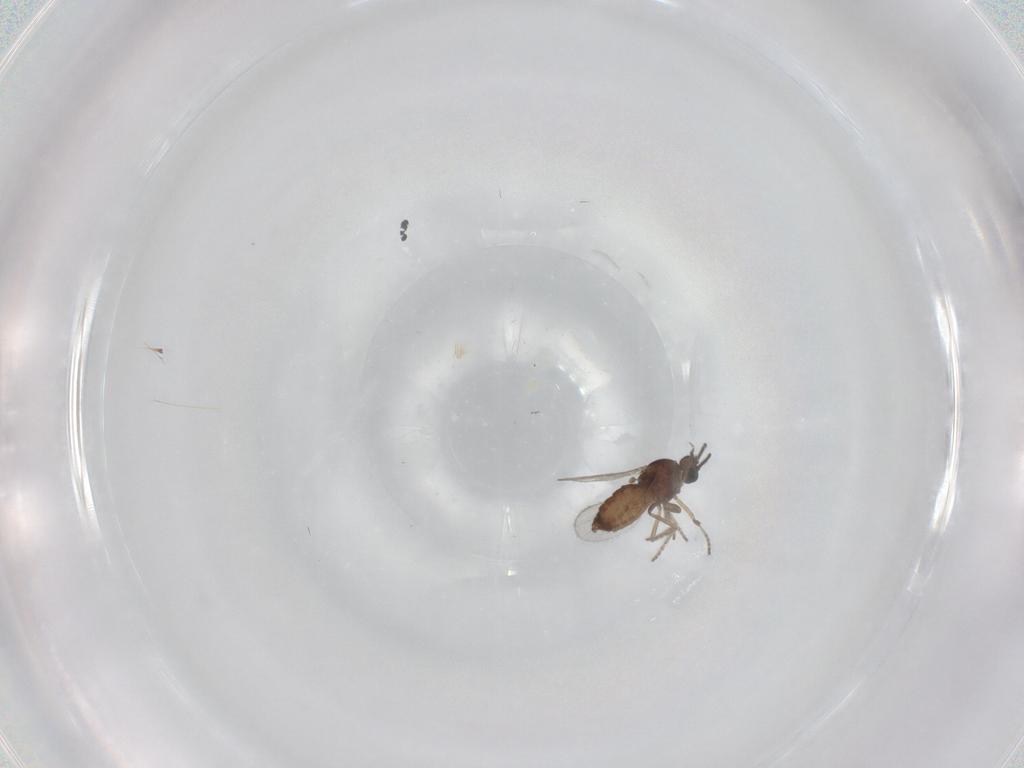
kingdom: Animalia
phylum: Arthropoda
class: Insecta
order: Diptera
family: Ceratopogonidae
